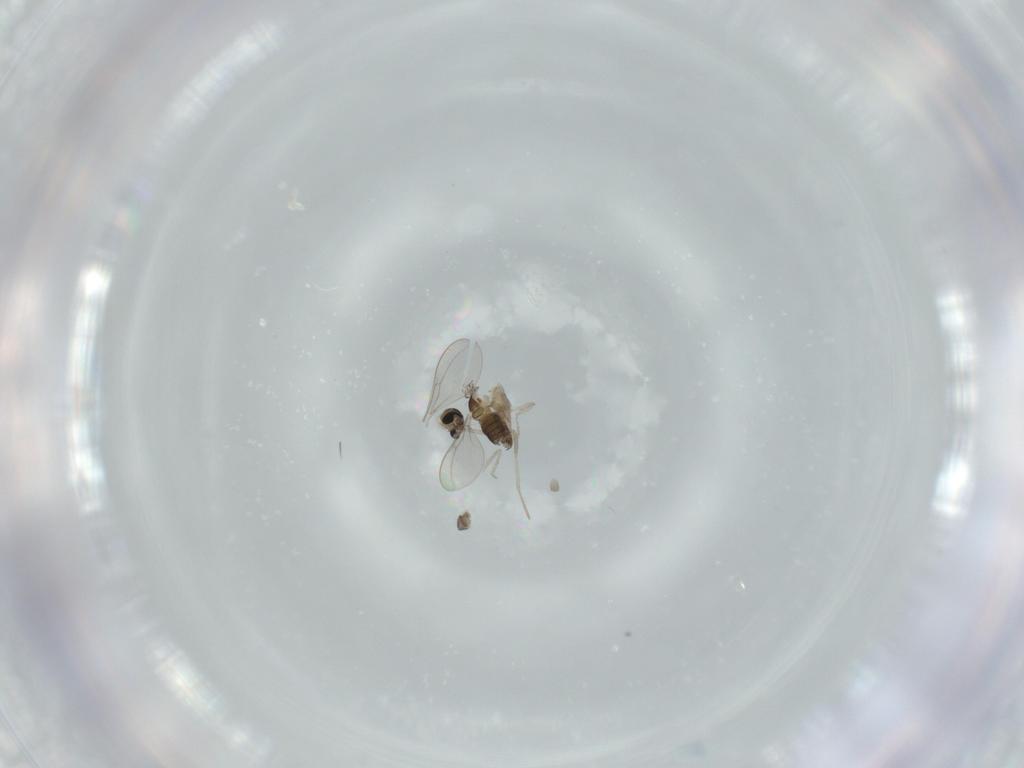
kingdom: Animalia
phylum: Arthropoda
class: Insecta
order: Diptera
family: Cecidomyiidae
